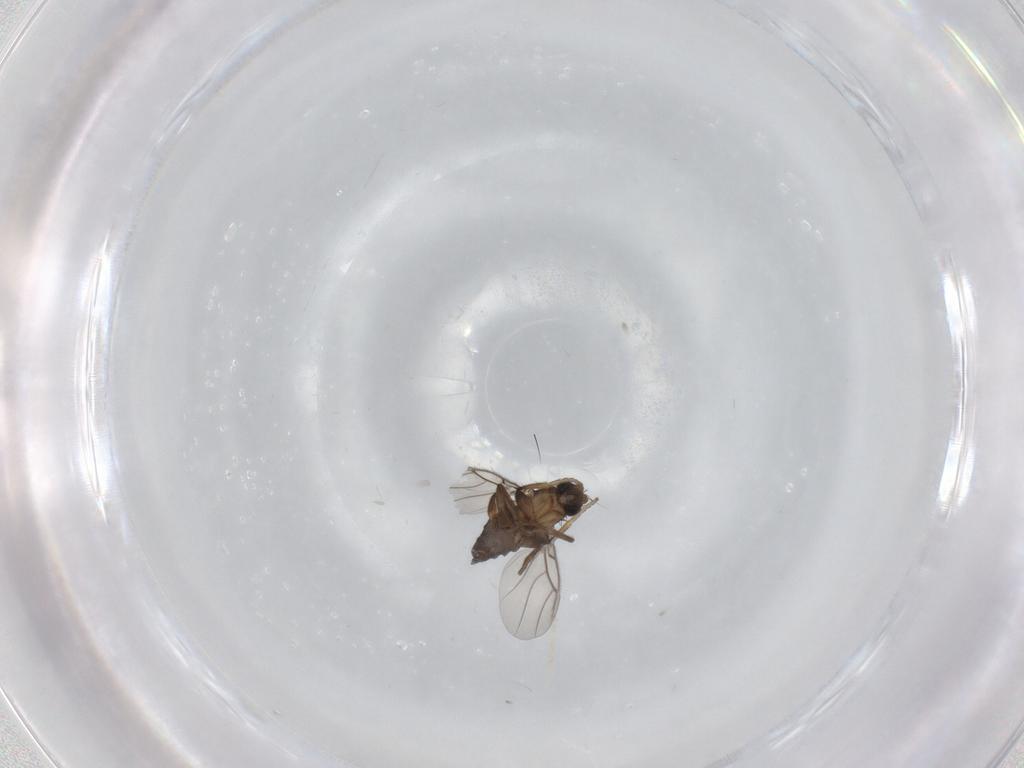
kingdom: Animalia
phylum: Arthropoda
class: Insecta
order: Diptera
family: Phoridae
